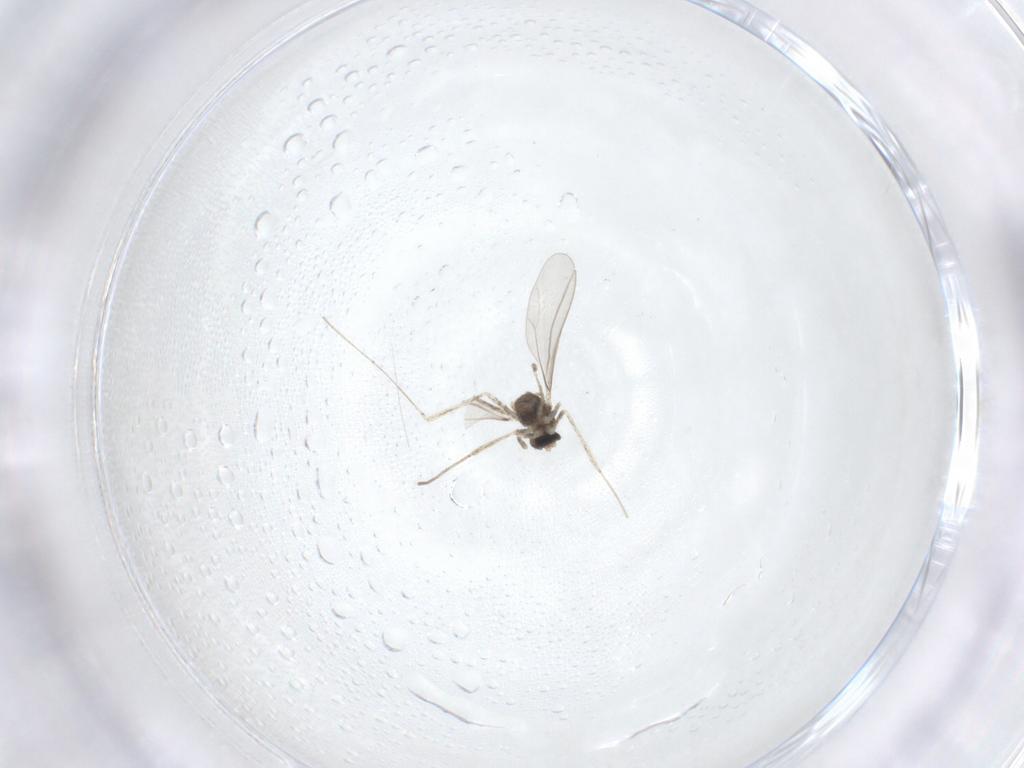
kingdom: Animalia
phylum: Arthropoda
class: Insecta
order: Diptera
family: Cecidomyiidae
